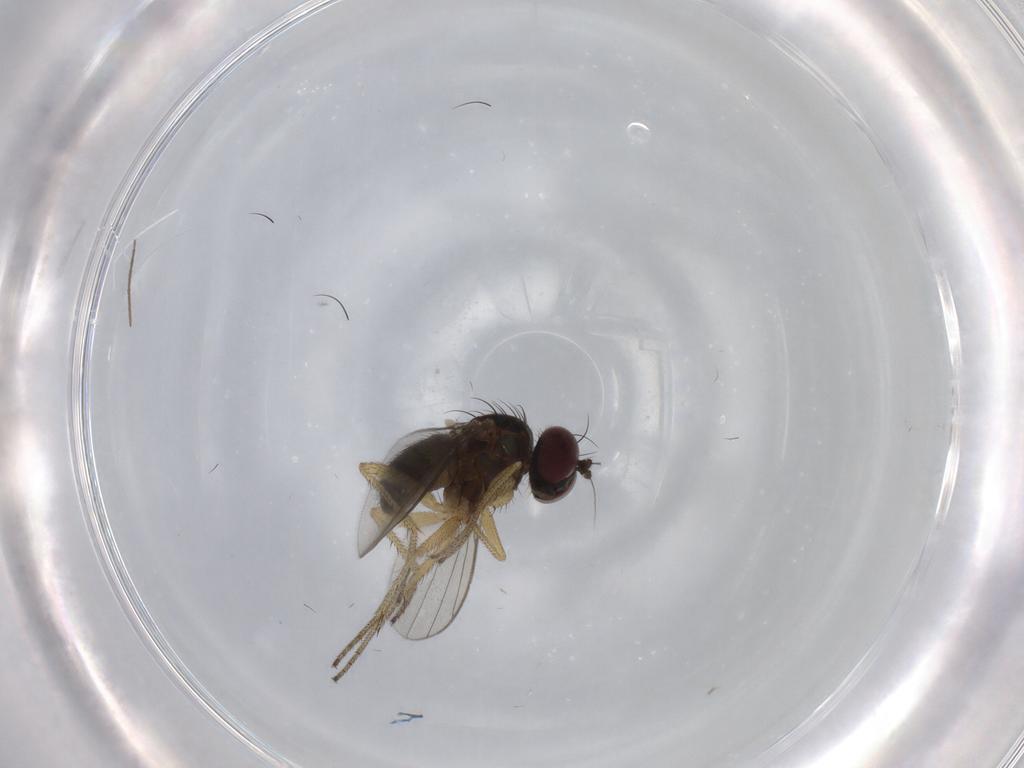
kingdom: Animalia
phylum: Arthropoda
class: Insecta
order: Diptera
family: Dolichopodidae
